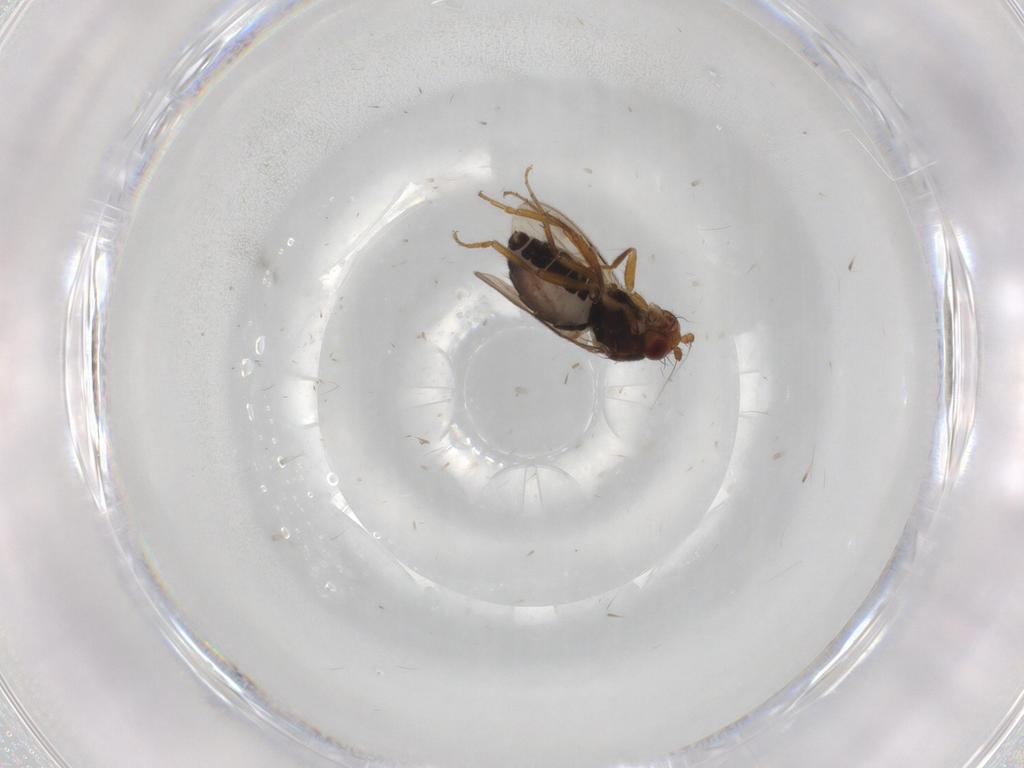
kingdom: Animalia
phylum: Arthropoda
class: Insecta
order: Diptera
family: Sphaeroceridae
